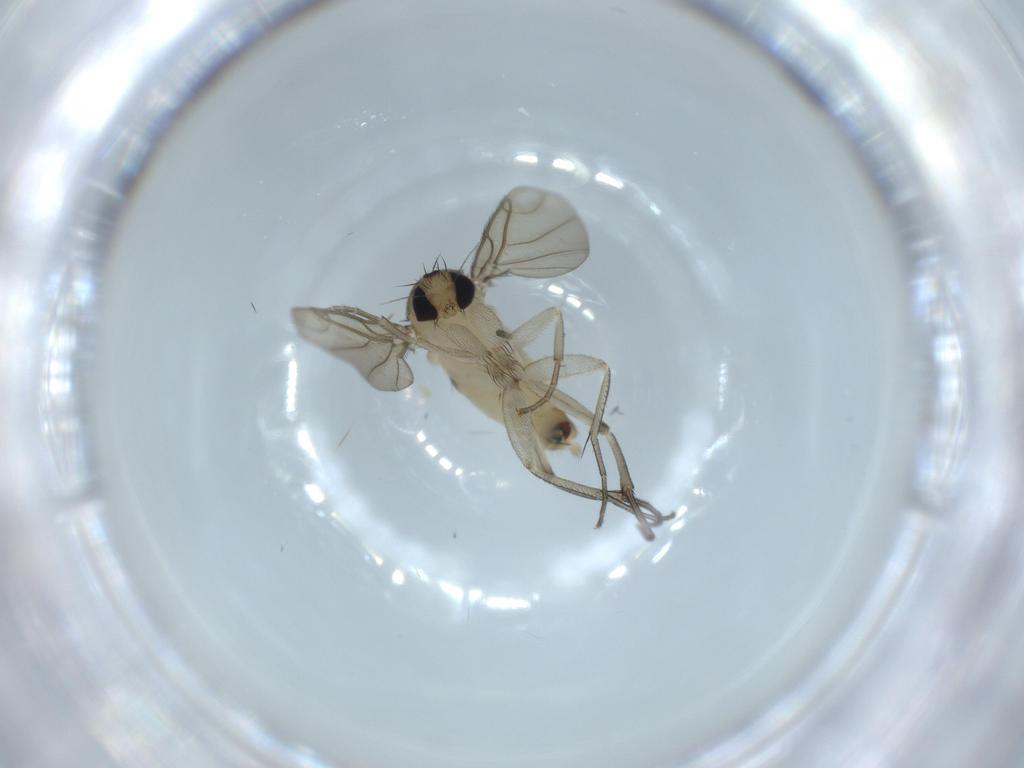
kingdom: Animalia
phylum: Arthropoda
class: Insecta
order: Diptera
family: Phoridae
